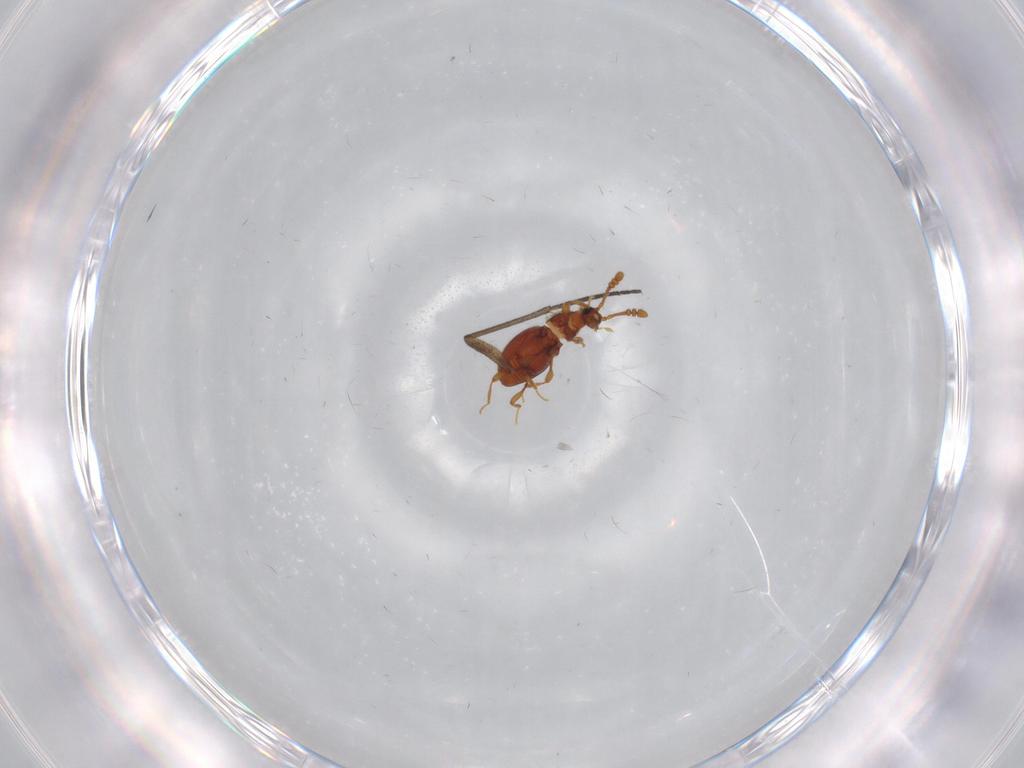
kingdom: Animalia
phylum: Arthropoda
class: Insecta
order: Coleoptera
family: Staphylinidae
